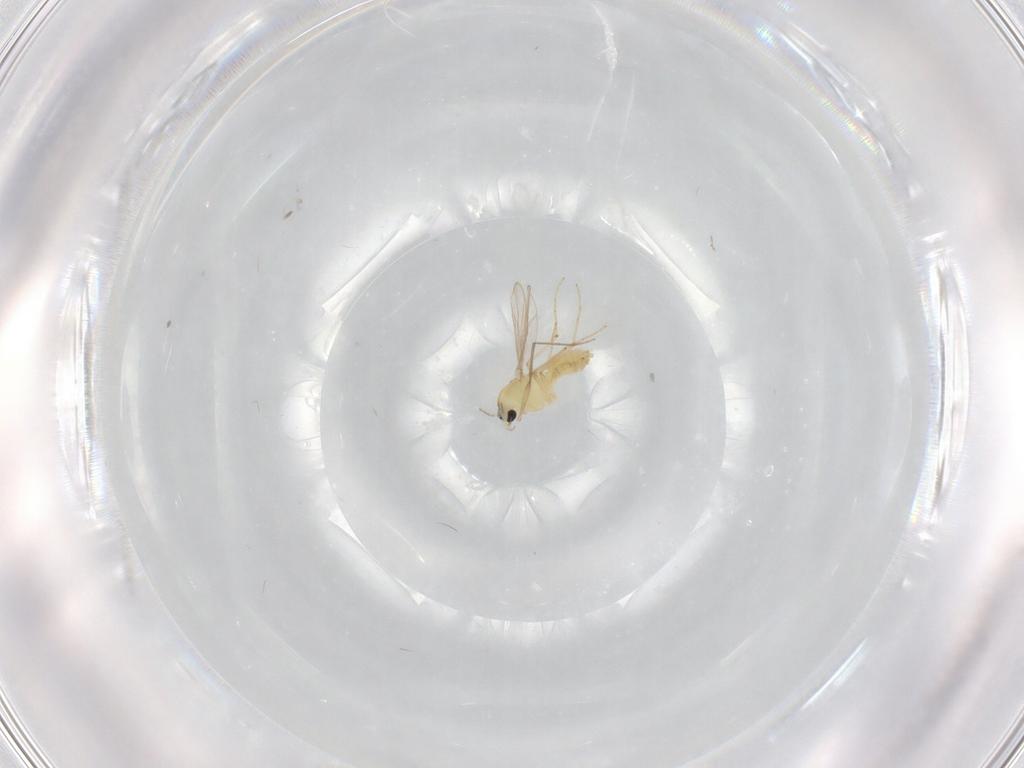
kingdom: Animalia
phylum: Arthropoda
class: Insecta
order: Diptera
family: Chironomidae
